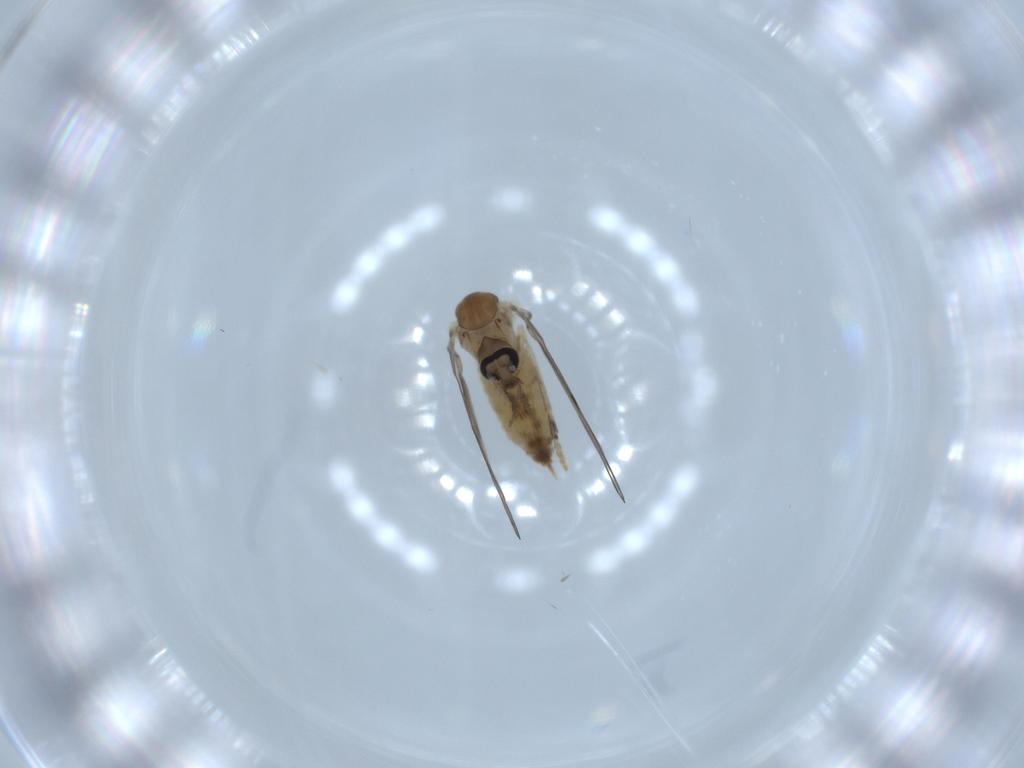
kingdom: Animalia
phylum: Arthropoda
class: Insecta
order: Diptera
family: Psychodidae
